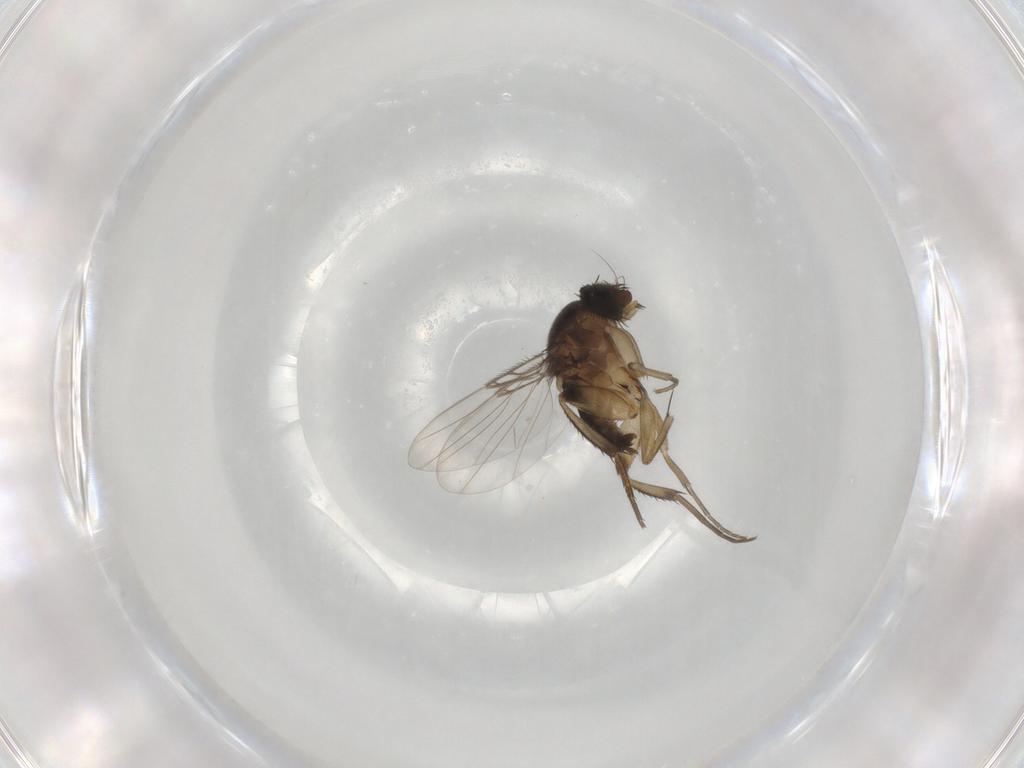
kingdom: Animalia
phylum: Arthropoda
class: Insecta
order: Diptera
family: Phoridae
